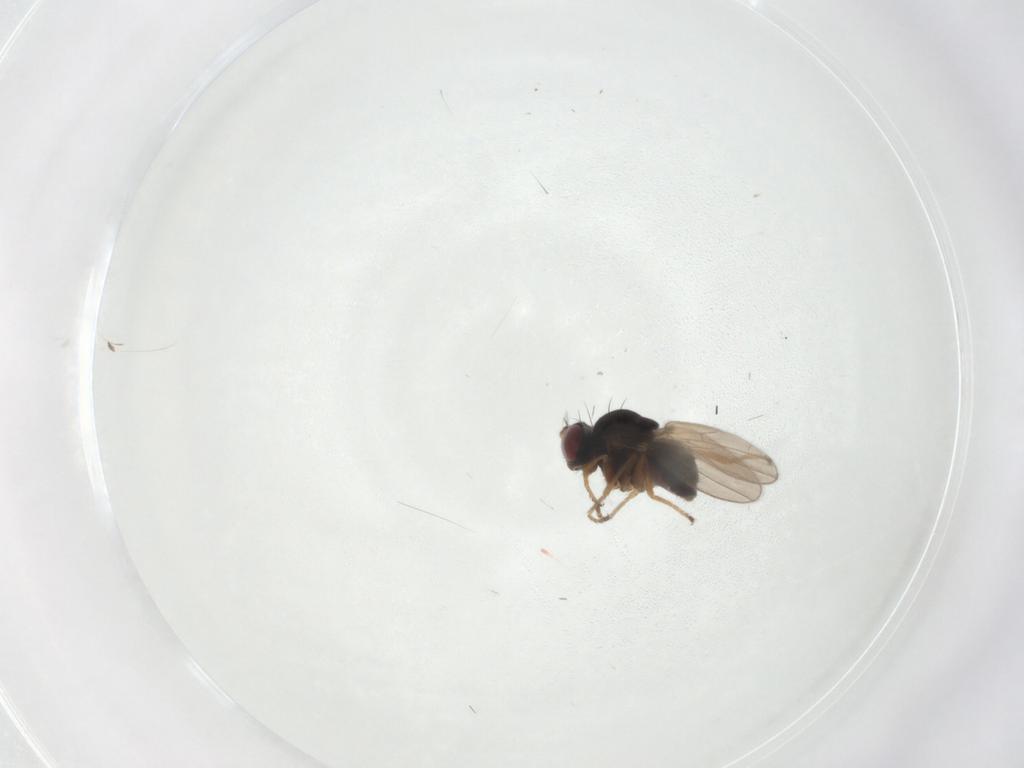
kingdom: Animalia
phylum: Arthropoda
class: Insecta
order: Diptera
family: Ephydridae
